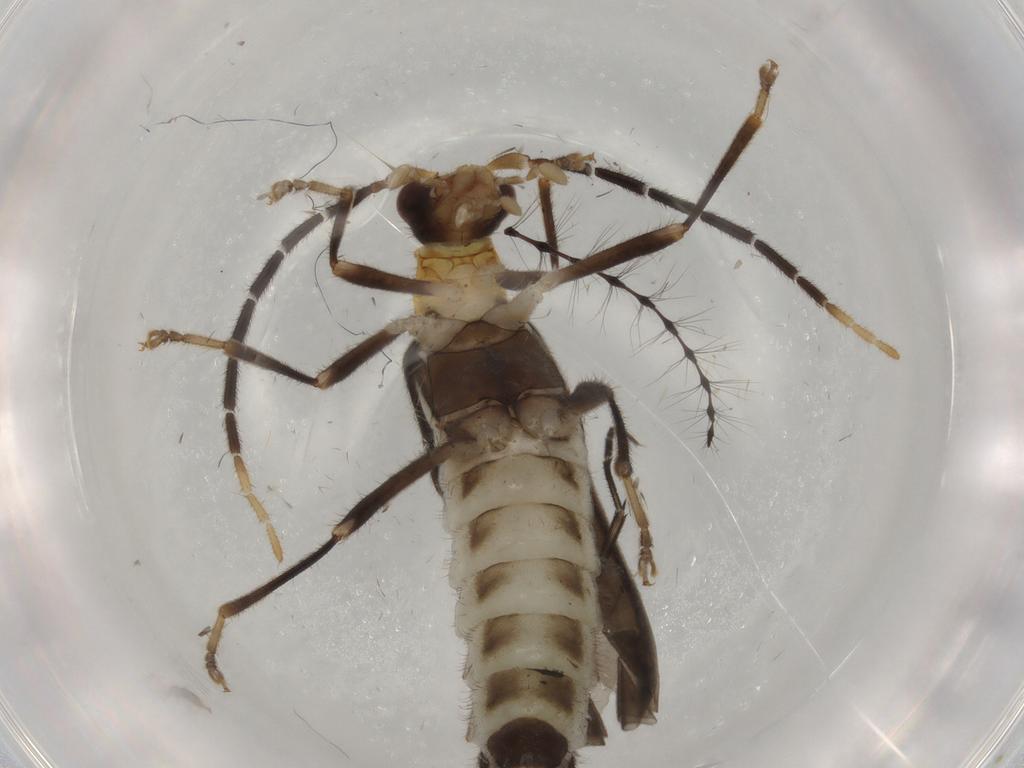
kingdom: Animalia
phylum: Arthropoda
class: Insecta
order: Coleoptera
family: Cantharidae
